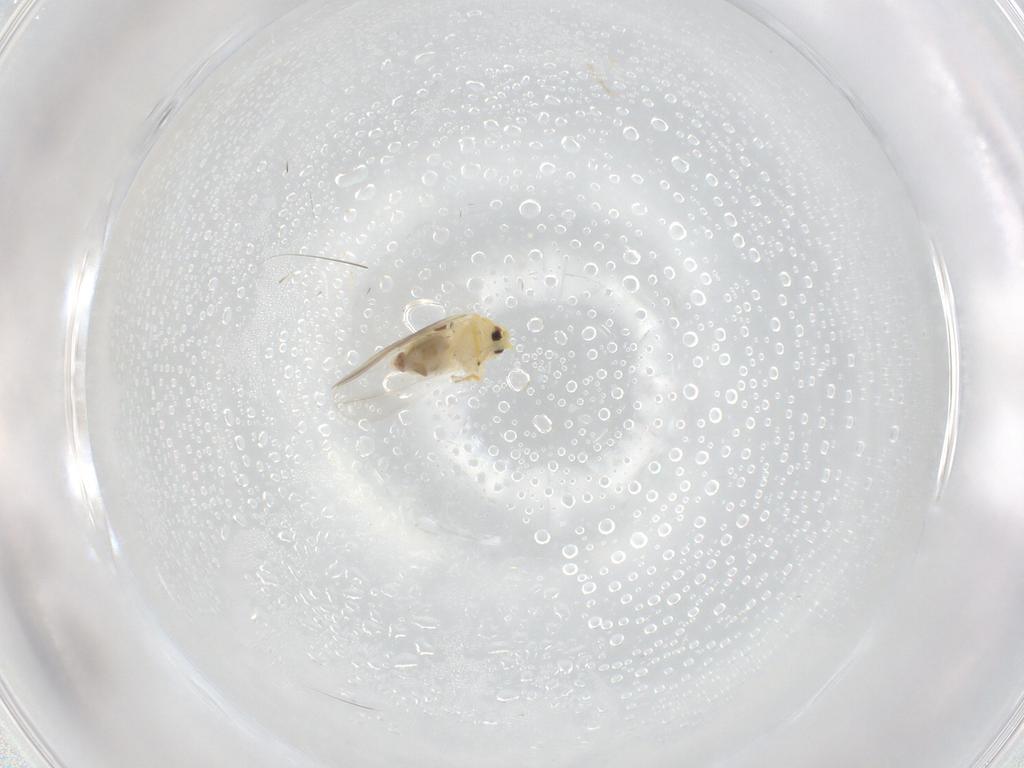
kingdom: Animalia
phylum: Arthropoda
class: Insecta
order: Hemiptera
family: Aleyrodidae
